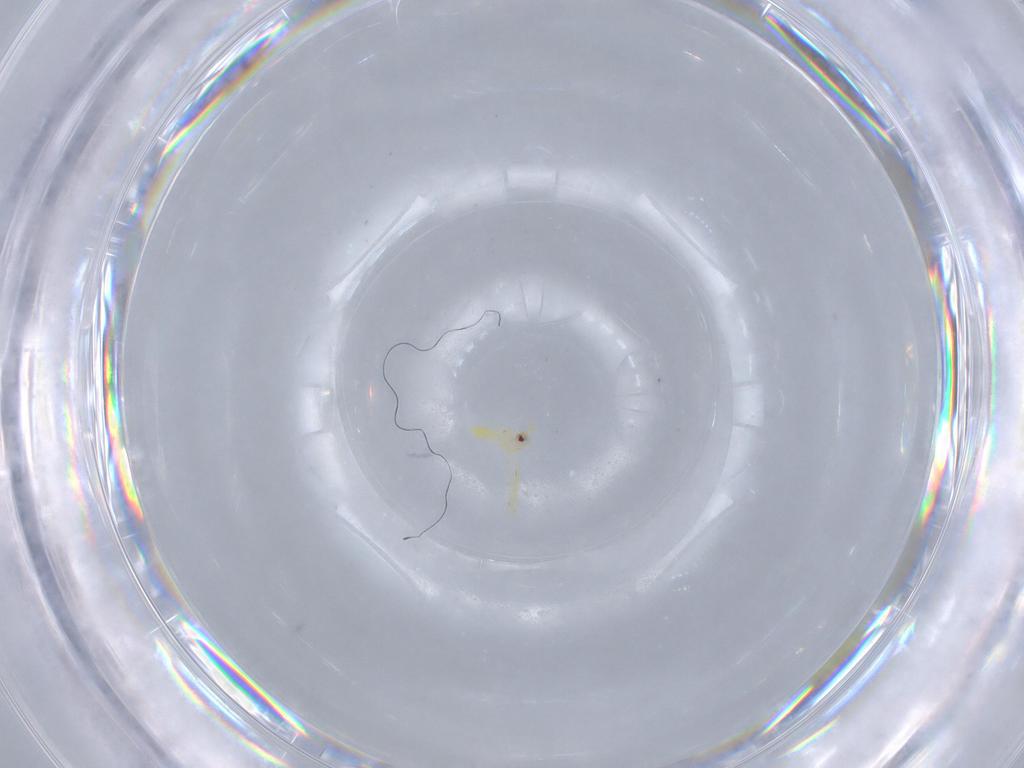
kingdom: Animalia
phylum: Arthropoda
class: Insecta
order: Hemiptera
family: Aleyrodidae
